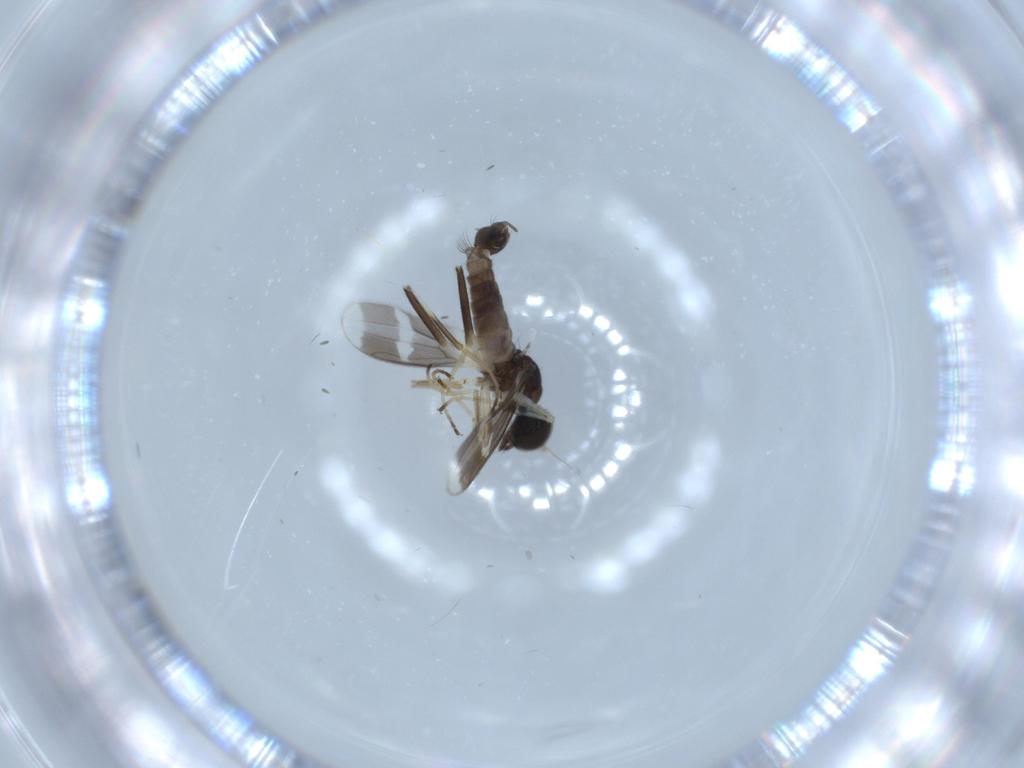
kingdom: Animalia
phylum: Arthropoda
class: Insecta
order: Diptera
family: Hybotidae
